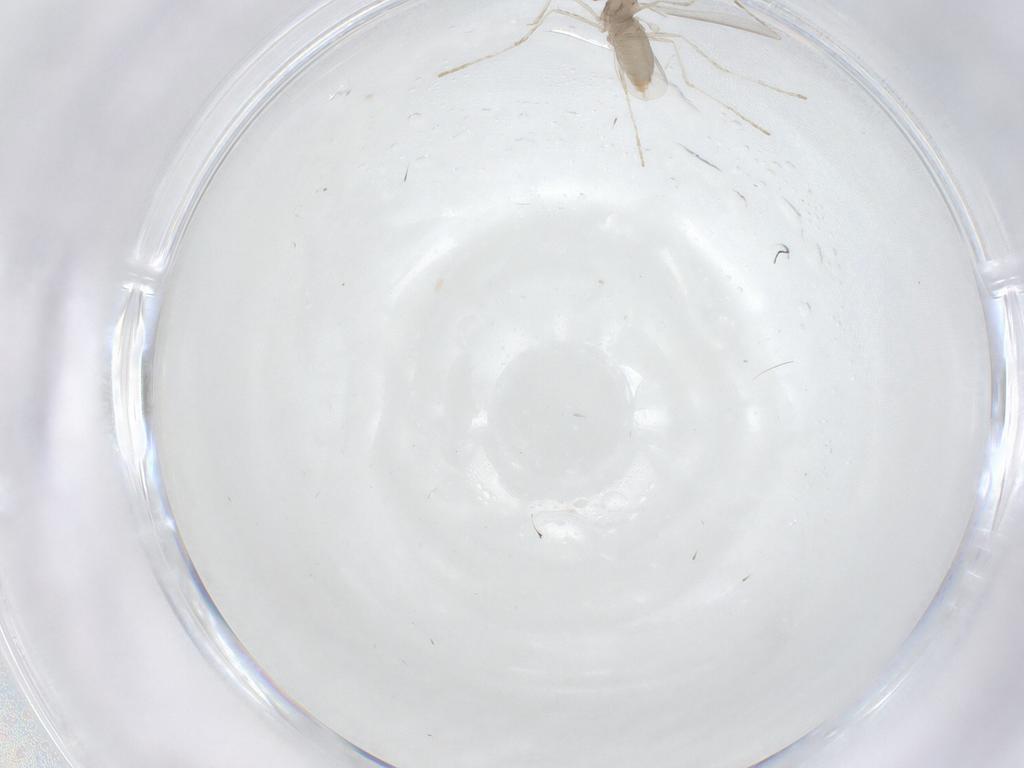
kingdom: Animalia
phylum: Arthropoda
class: Insecta
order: Diptera
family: Cecidomyiidae
